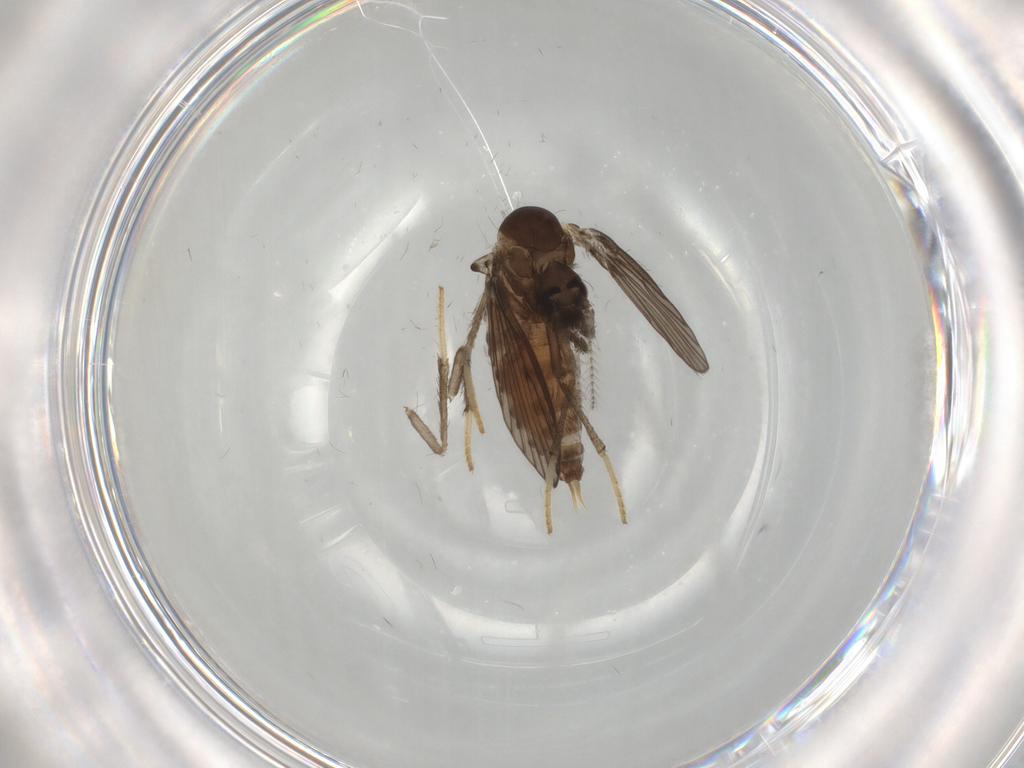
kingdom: Animalia
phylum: Arthropoda
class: Insecta
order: Diptera
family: Psychodidae
